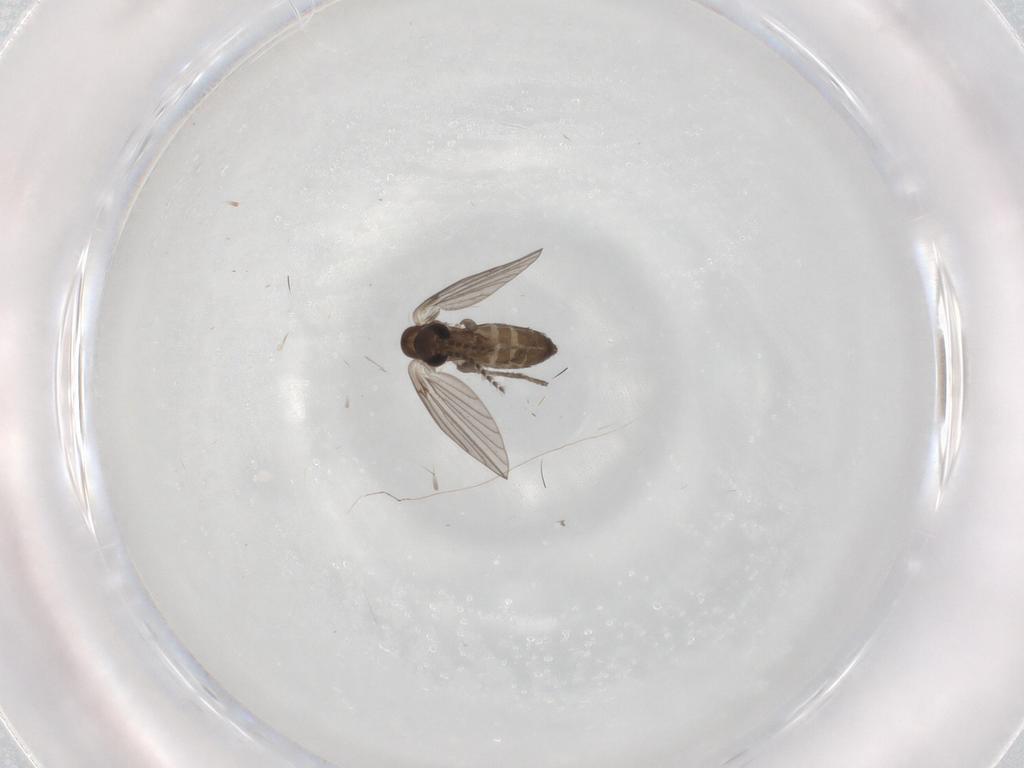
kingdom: Animalia
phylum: Arthropoda
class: Insecta
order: Diptera
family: Sphaeroceridae
